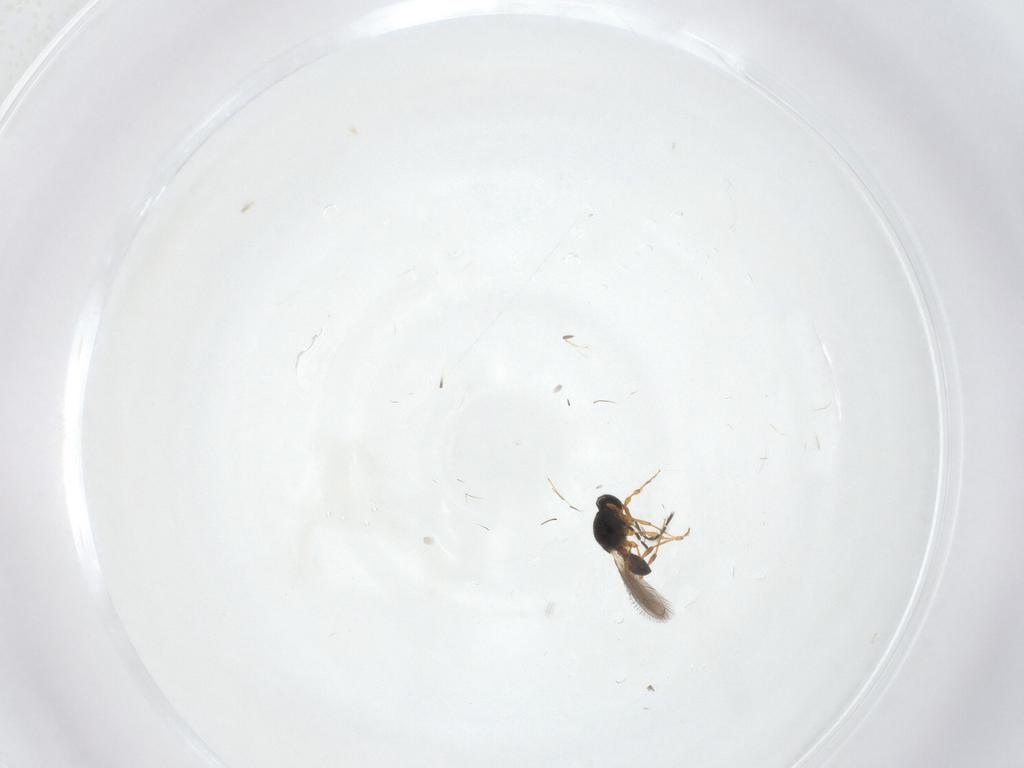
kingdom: Animalia
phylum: Arthropoda
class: Insecta
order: Hymenoptera
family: Platygastridae
